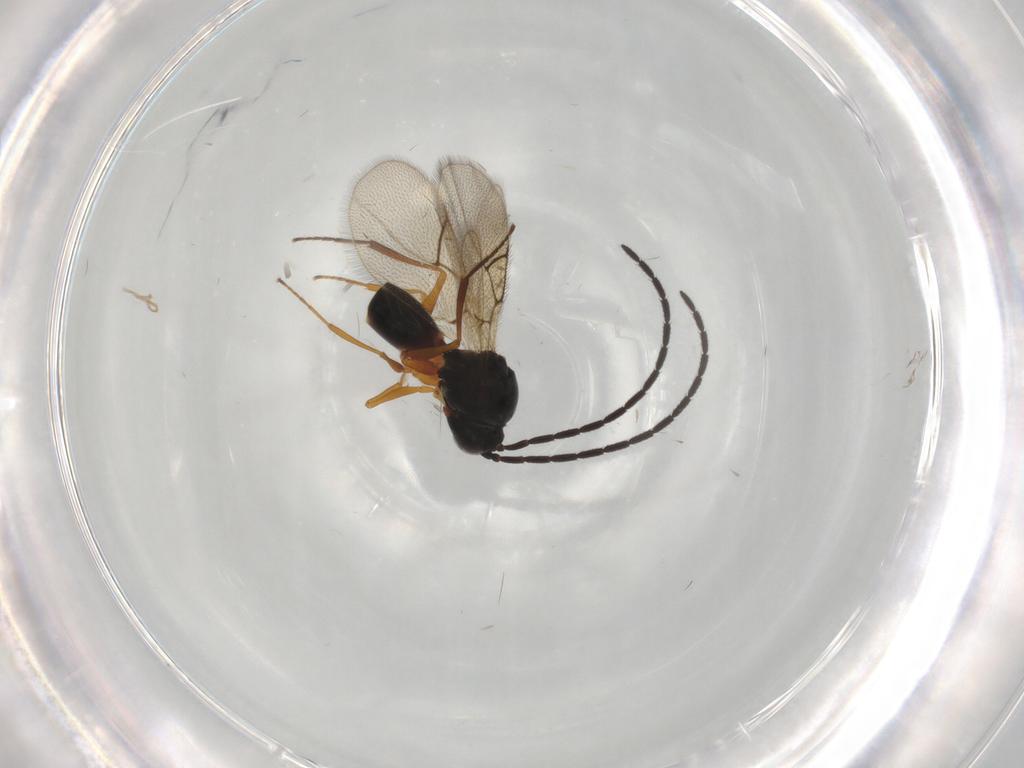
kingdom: Animalia
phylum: Arthropoda
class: Insecta
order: Hymenoptera
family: Figitidae
